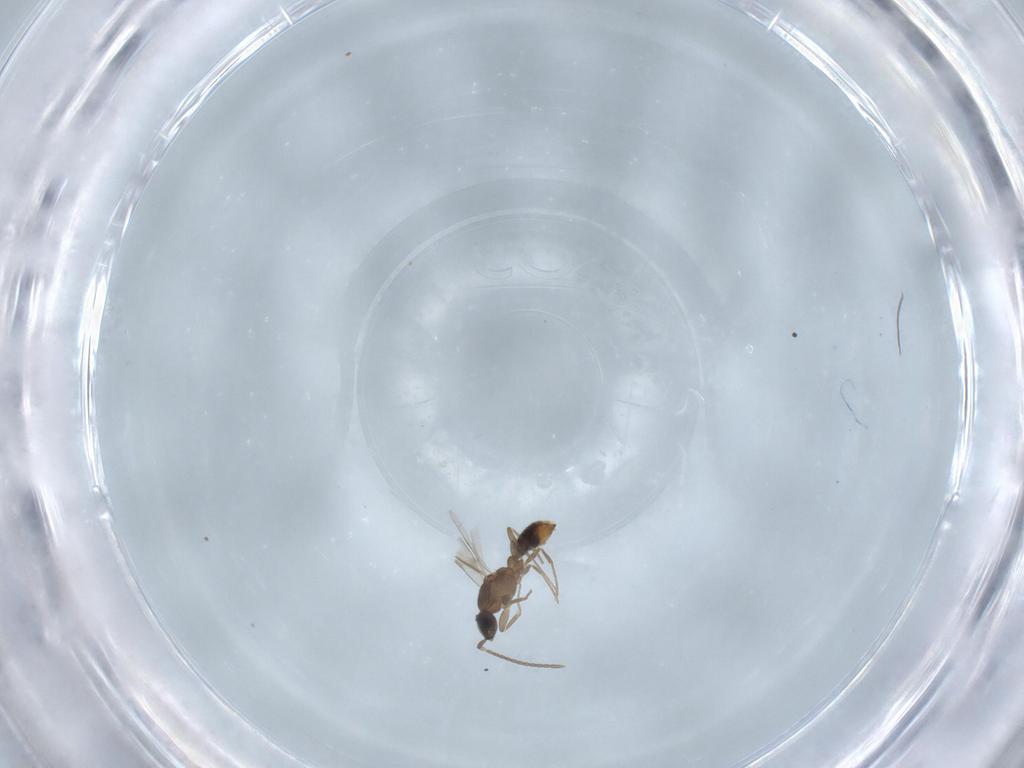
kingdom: Animalia
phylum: Arthropoda
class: Insecta
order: Hymenoptera
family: Formicidae
